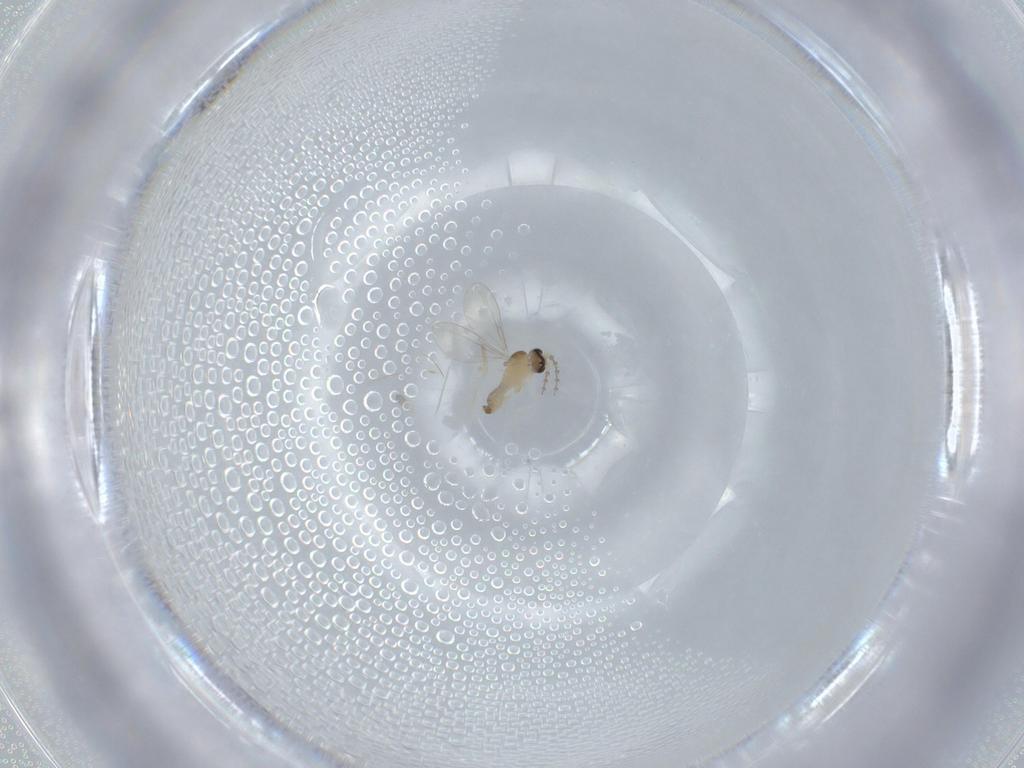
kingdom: Animalia
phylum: Arthropoda
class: Insecta
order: Diptera
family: Cecidomyiidae
